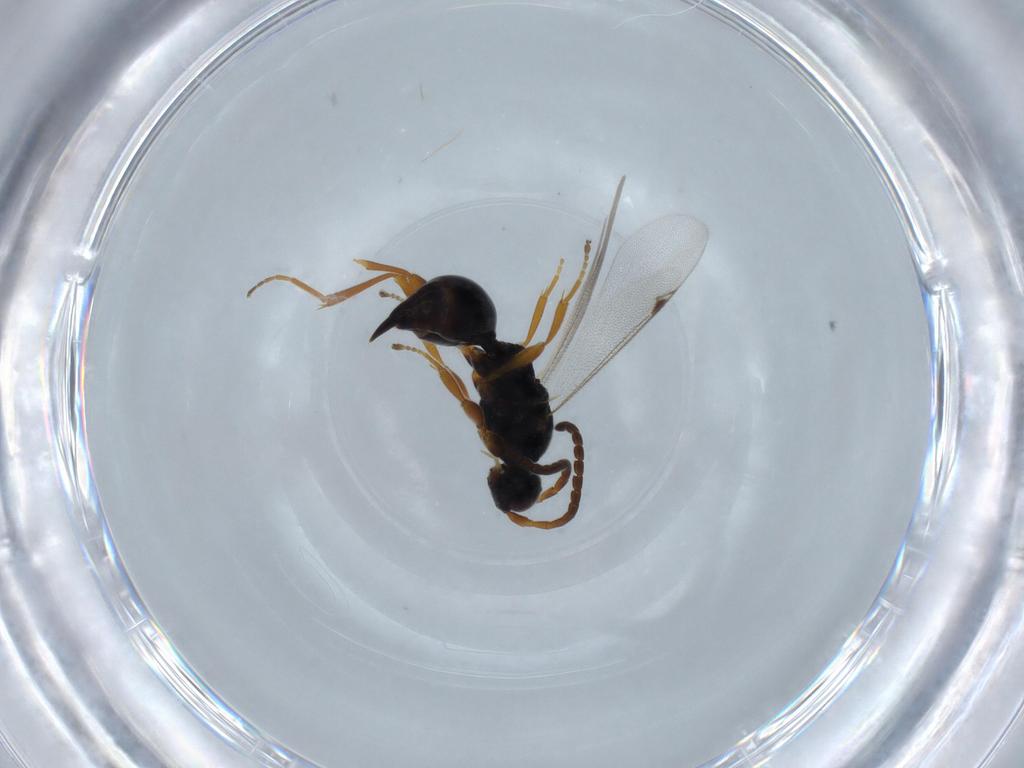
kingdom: Animalia
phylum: Arthropoda
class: Insecta
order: Hymenoptera
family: Proctotrupidae
